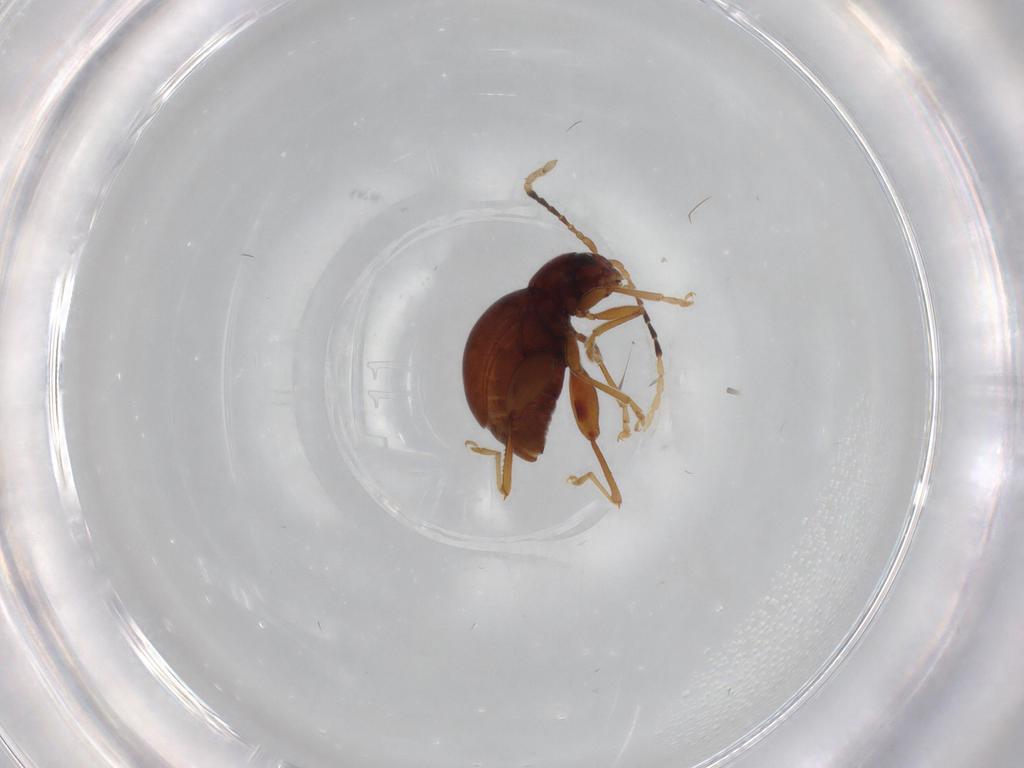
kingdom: Animalia
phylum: Arthropoda
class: Insecta
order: Coleoptera
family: Chrysomelidae
